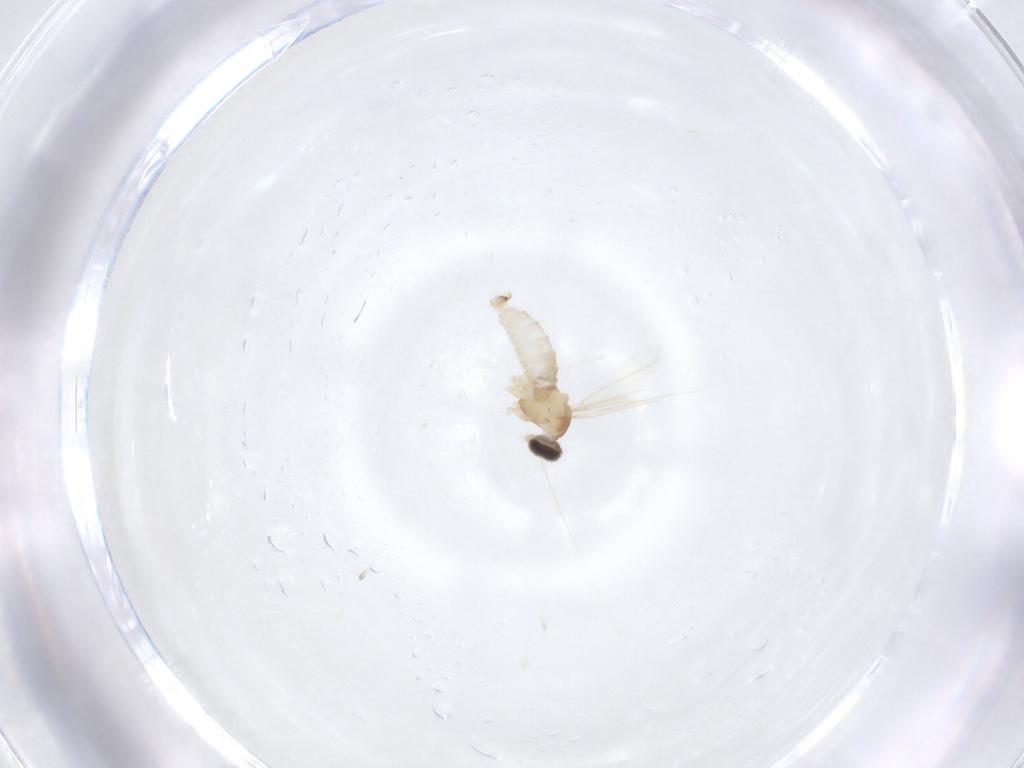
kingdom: Animalia
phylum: Arthropoda
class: Insecta
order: Diptera
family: Cecidomyiidae
